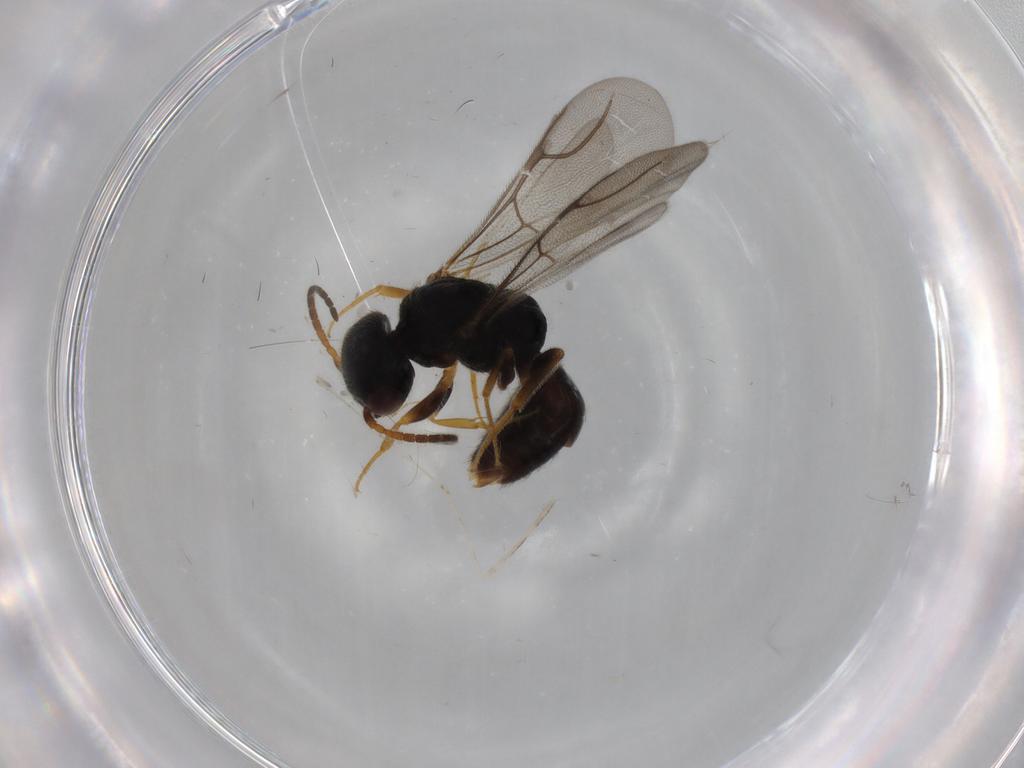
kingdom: Animalia
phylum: Arthropoda
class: Insecta
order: Hymenoptera
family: Bethylidae
